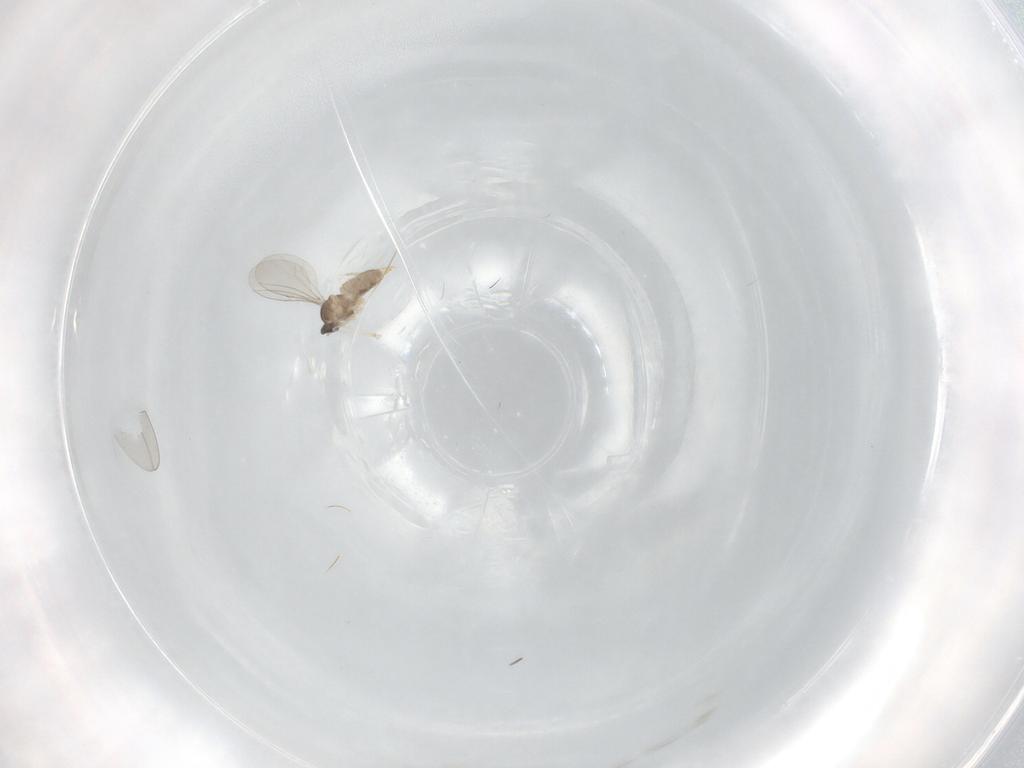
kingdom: Animalia
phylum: Arthropoda
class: Insecta
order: Diptera
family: Cecidomyiidae
